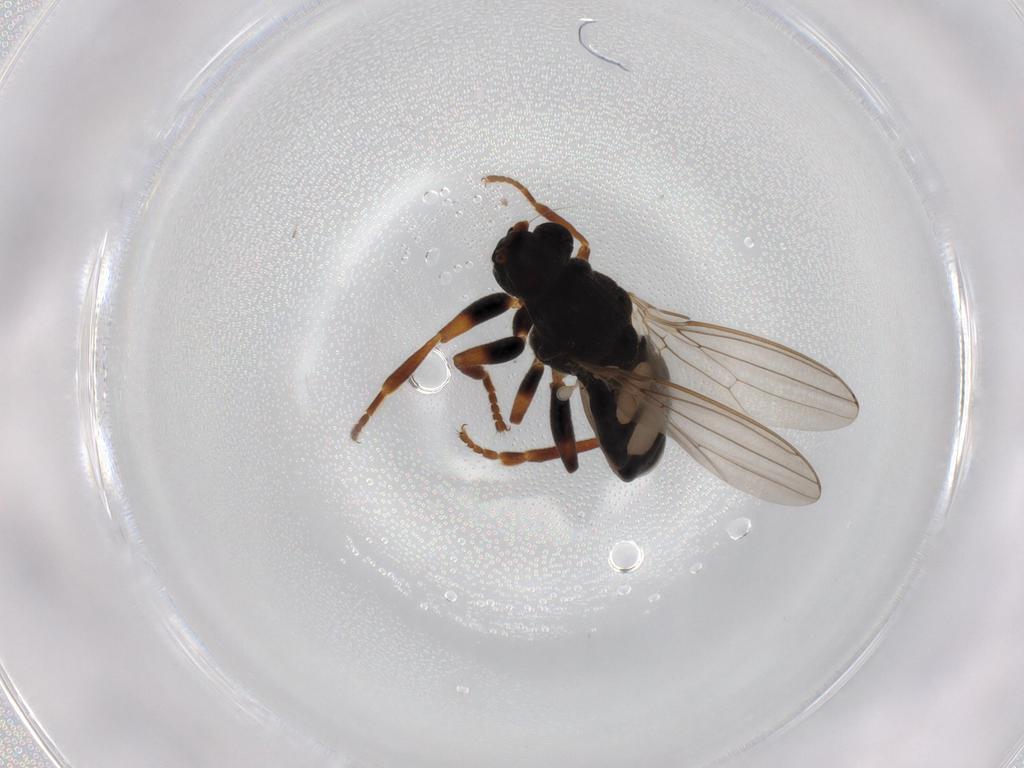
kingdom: Animalia
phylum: Arthropoda
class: Insecta
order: Diptera
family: Sphaeroceridae
